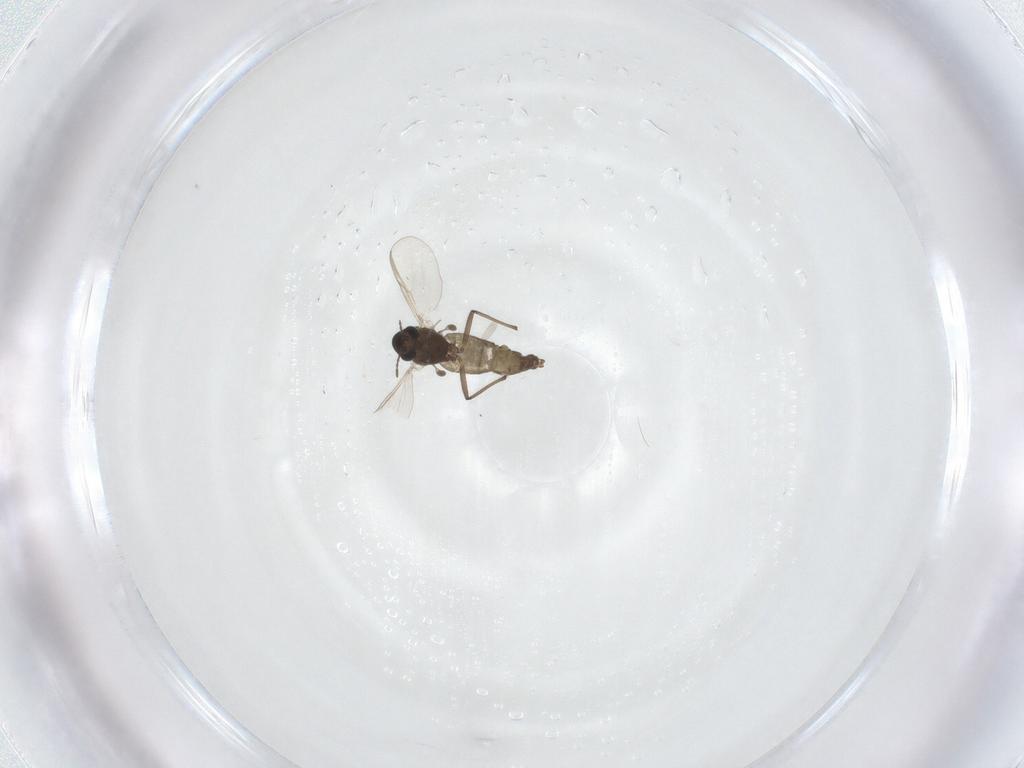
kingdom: Animalia
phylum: Arthropoda
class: Insecta
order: Diptera
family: Chironomidae
